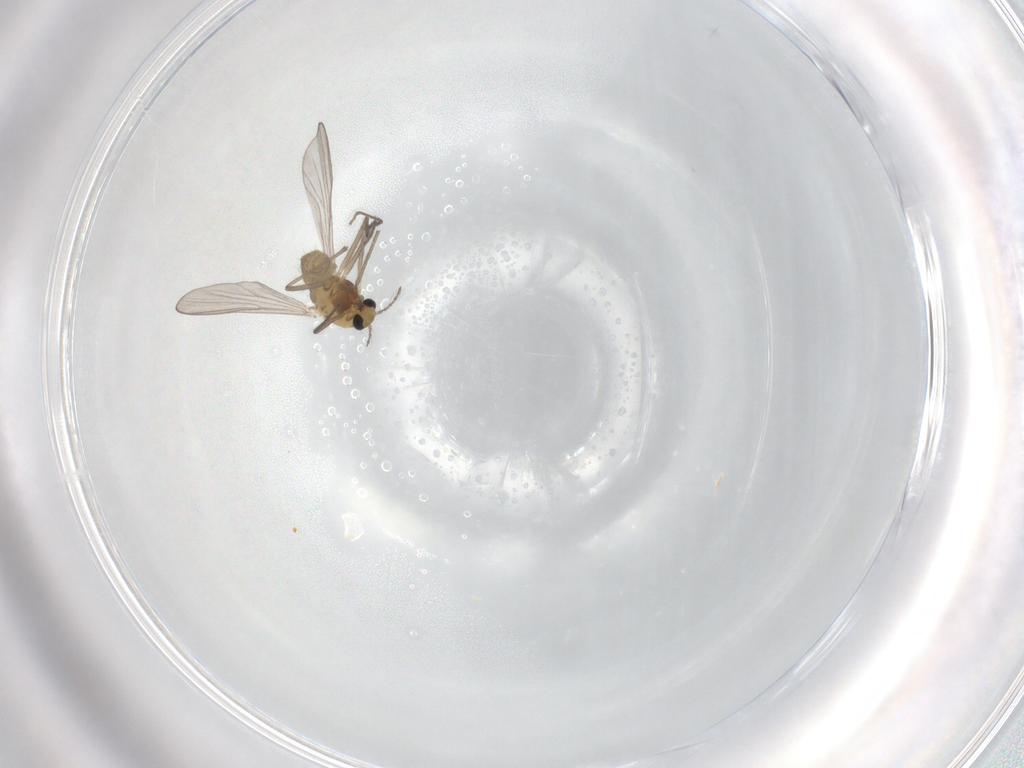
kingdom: Animalia
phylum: Arthropoda
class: Insecta
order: Diptera
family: Chironomidae
